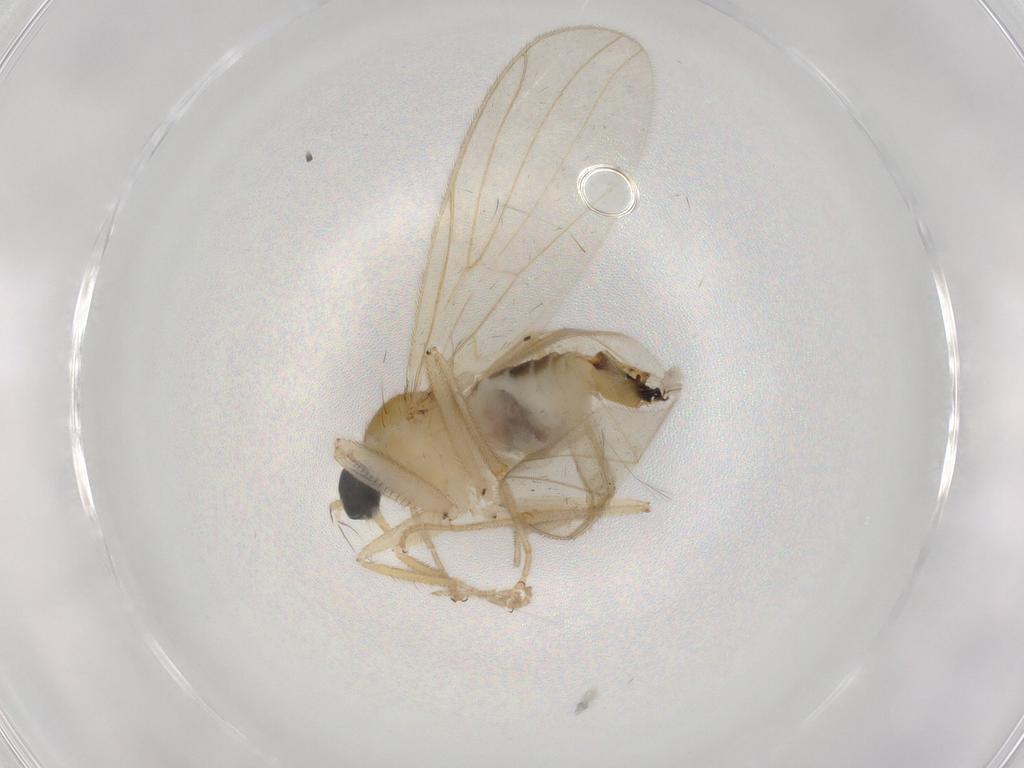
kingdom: Animalia
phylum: Arthropoda
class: Insecta
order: Diptera
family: Hybotidae
